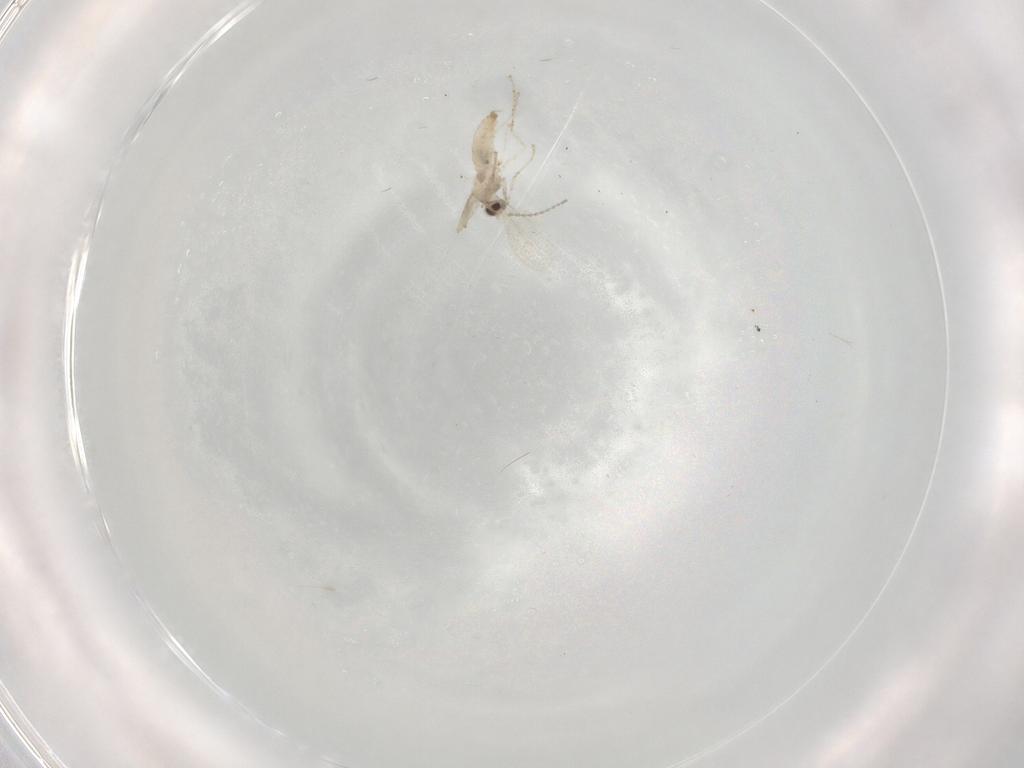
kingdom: Animalia
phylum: Arthropoda
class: Insecta
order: Diptera
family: Cecidomyiidae
